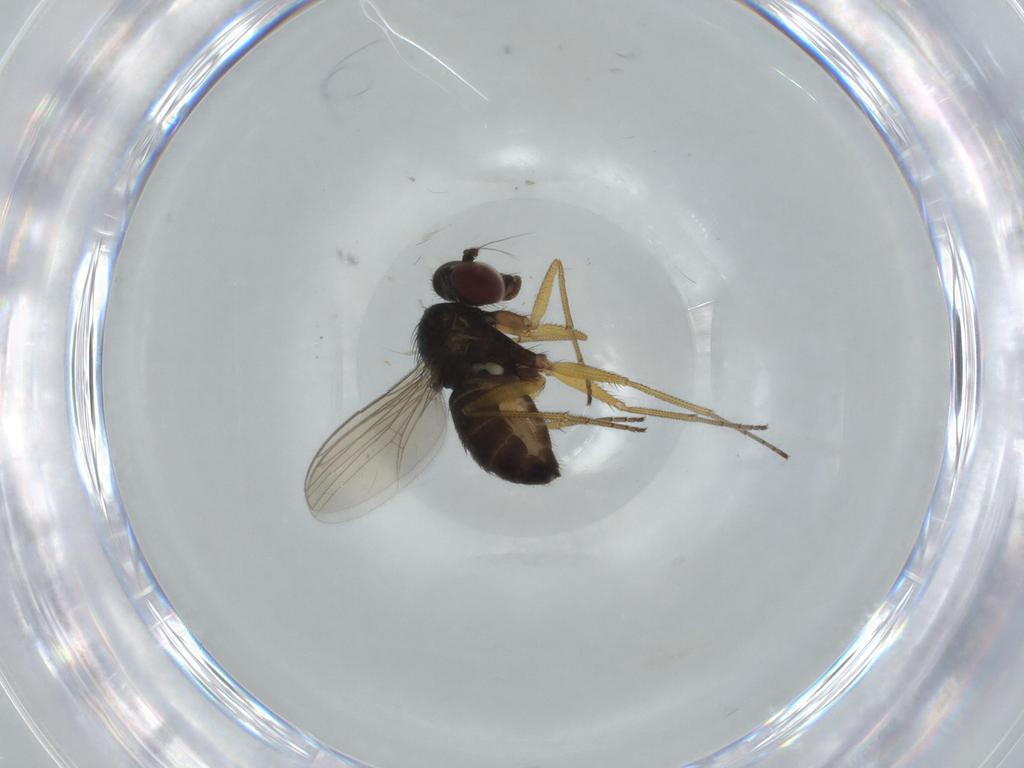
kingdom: Animalia
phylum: Arthropoda
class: Insecta
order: Diptera
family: Dolichopodidae
